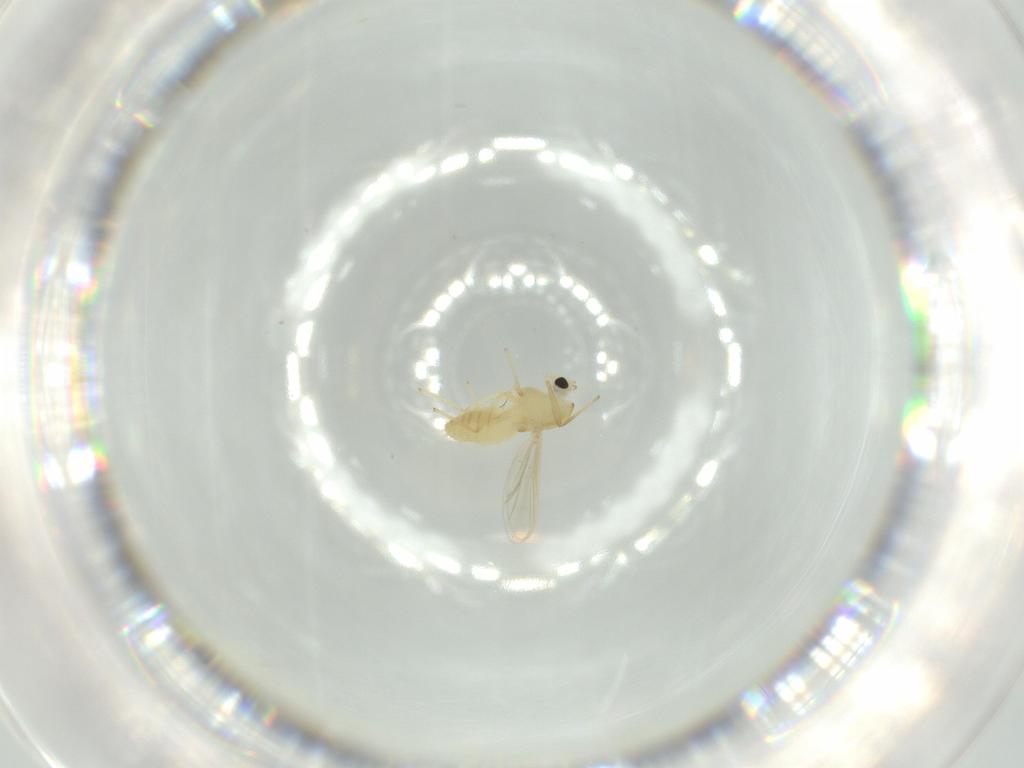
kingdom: Animalia
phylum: Arthropoda
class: Insecta
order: Diptera
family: Chironomidae
